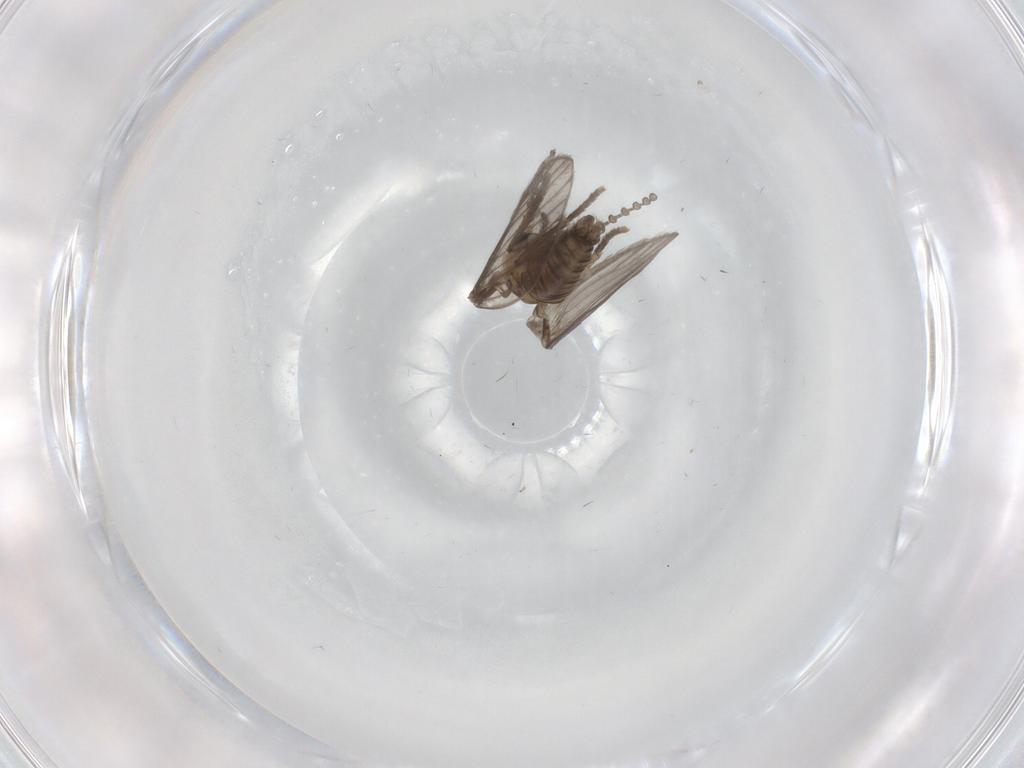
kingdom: Animalia
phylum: Arthropoda
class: Insecta
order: Diptera
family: Psychodidae
